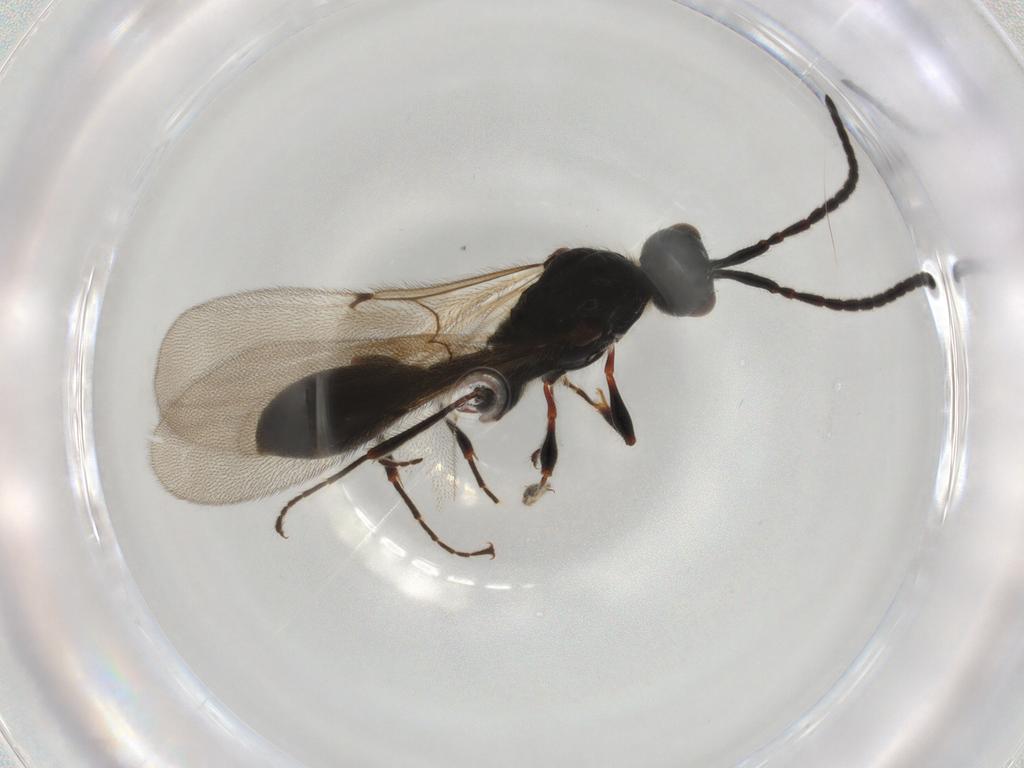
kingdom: Animalia
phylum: Arthropoda
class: Insecta
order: Hymenoptera
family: Diapriidae
